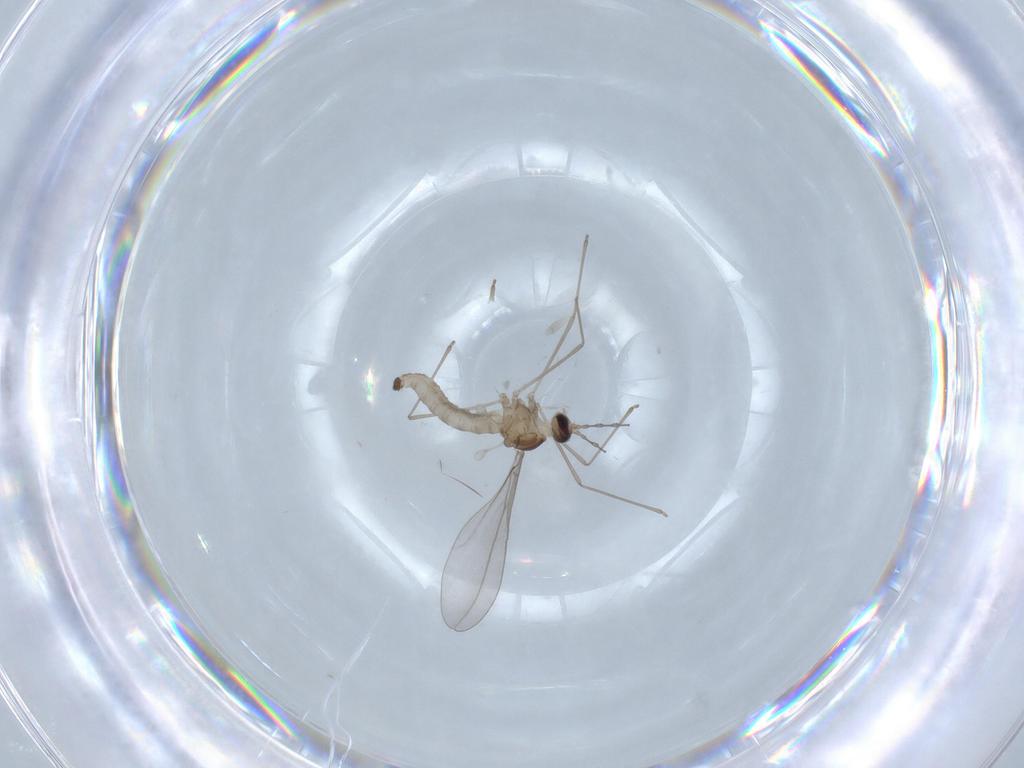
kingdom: Animalia
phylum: Arthropoda
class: Insecta
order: Diptera
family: Cecidomyiidae
